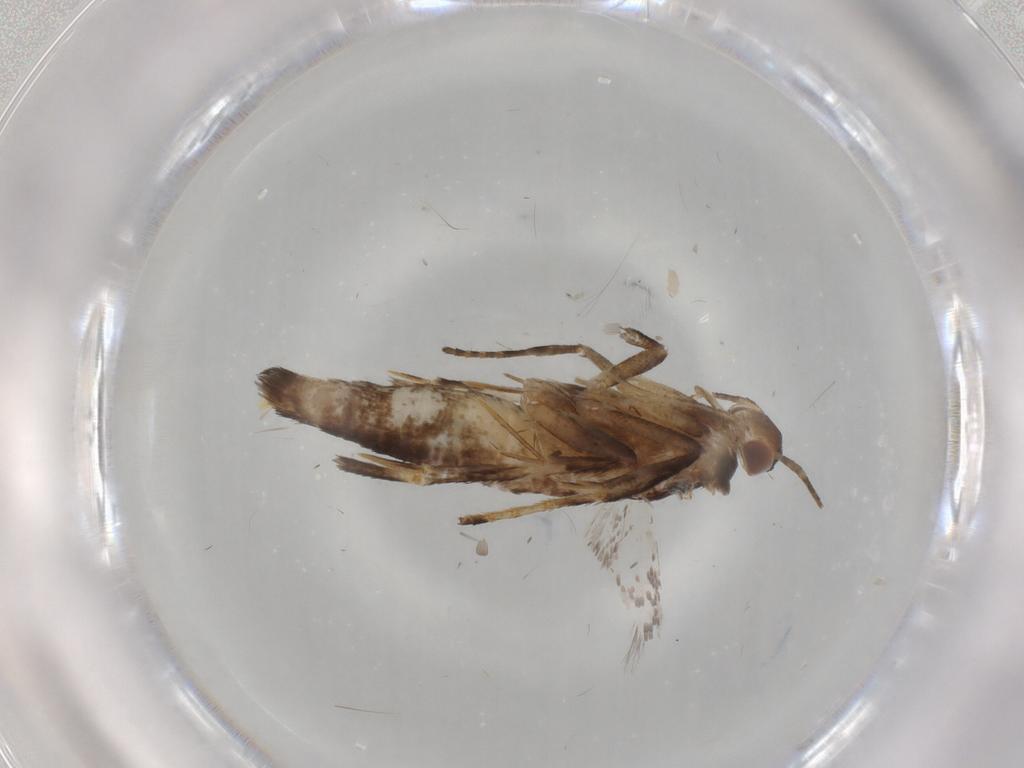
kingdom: Animalia
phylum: Arthropoda
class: Insecta
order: Lepidoptera
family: Gelechiidae
